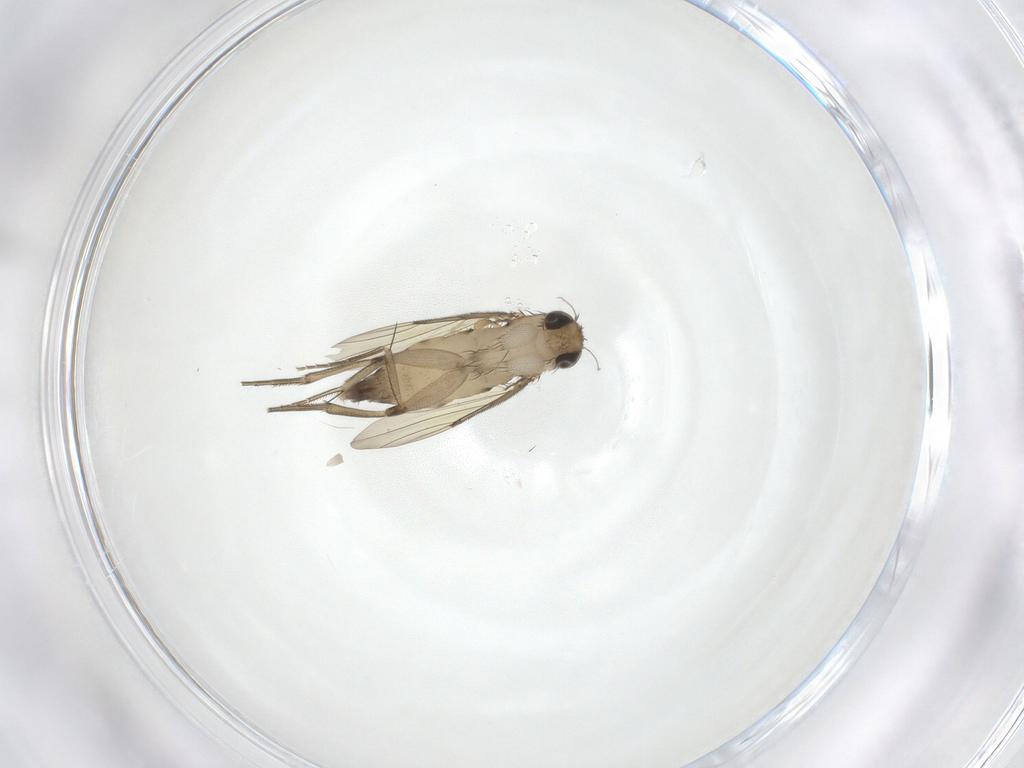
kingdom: Animalia
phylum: Arthropoda
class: Insecta
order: Diptera
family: Phoridae
